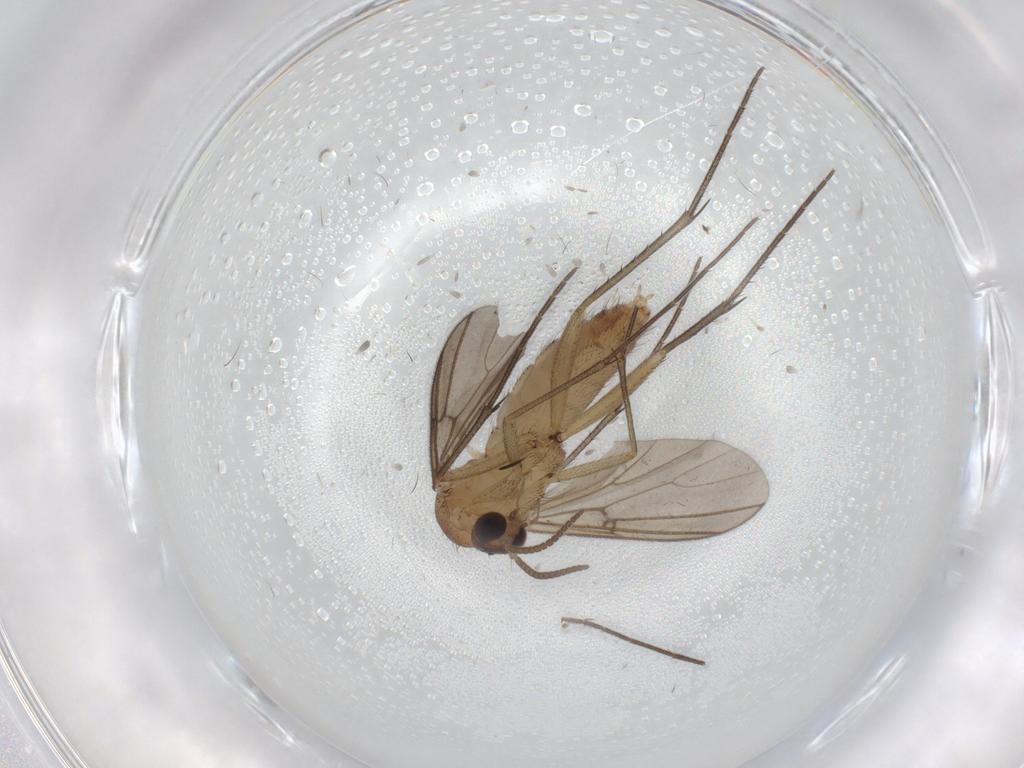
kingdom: Animalia
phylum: Arthropoda
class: Insecta
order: Diptera
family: Mycetophilidae
